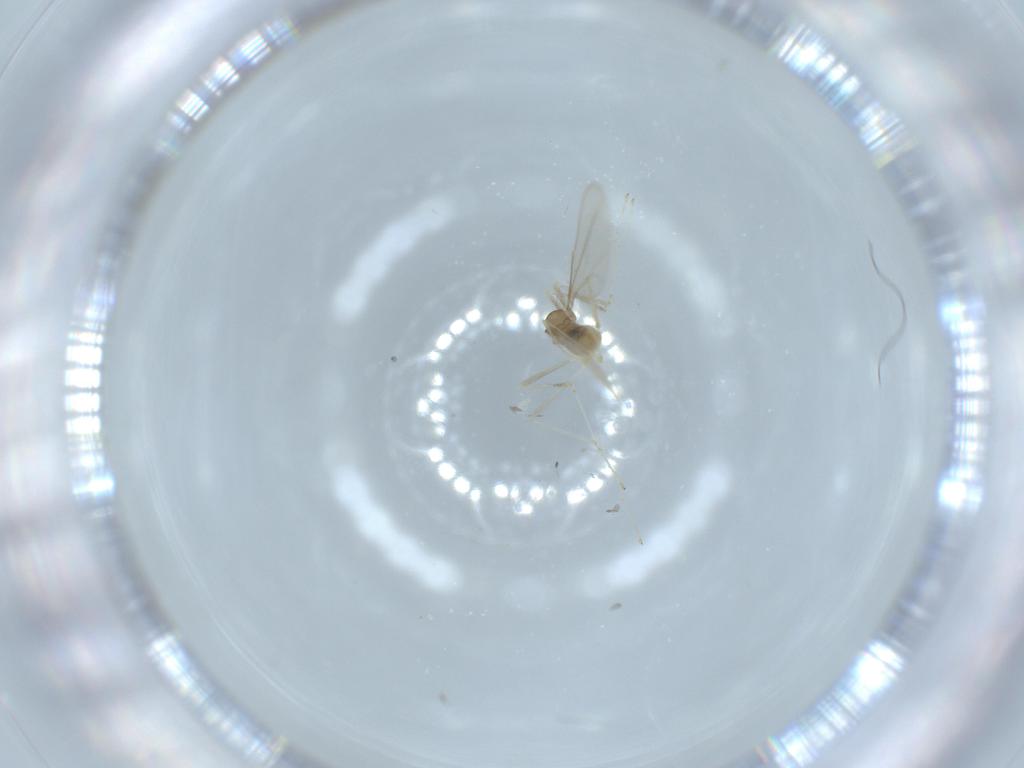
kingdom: Animalia
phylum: Arthropoda
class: Insecta
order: Diptera
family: Cecidomyiidae
